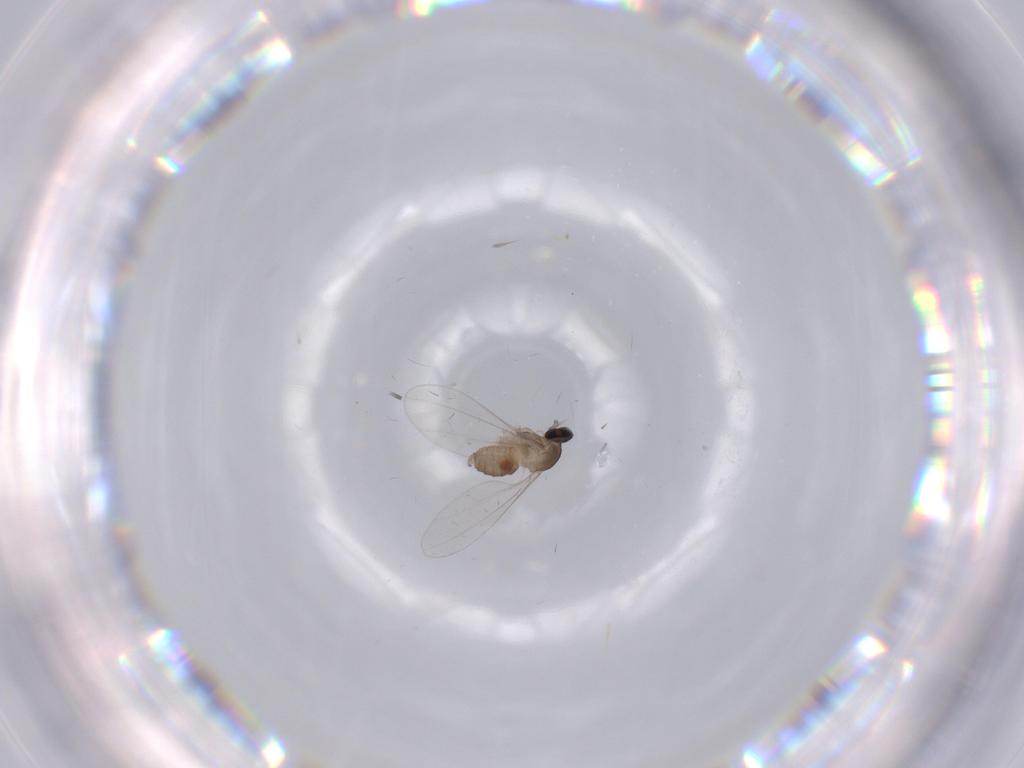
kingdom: Animalia
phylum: Arthropoda
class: Insecta
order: Diptera
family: Cecidomyiidae
